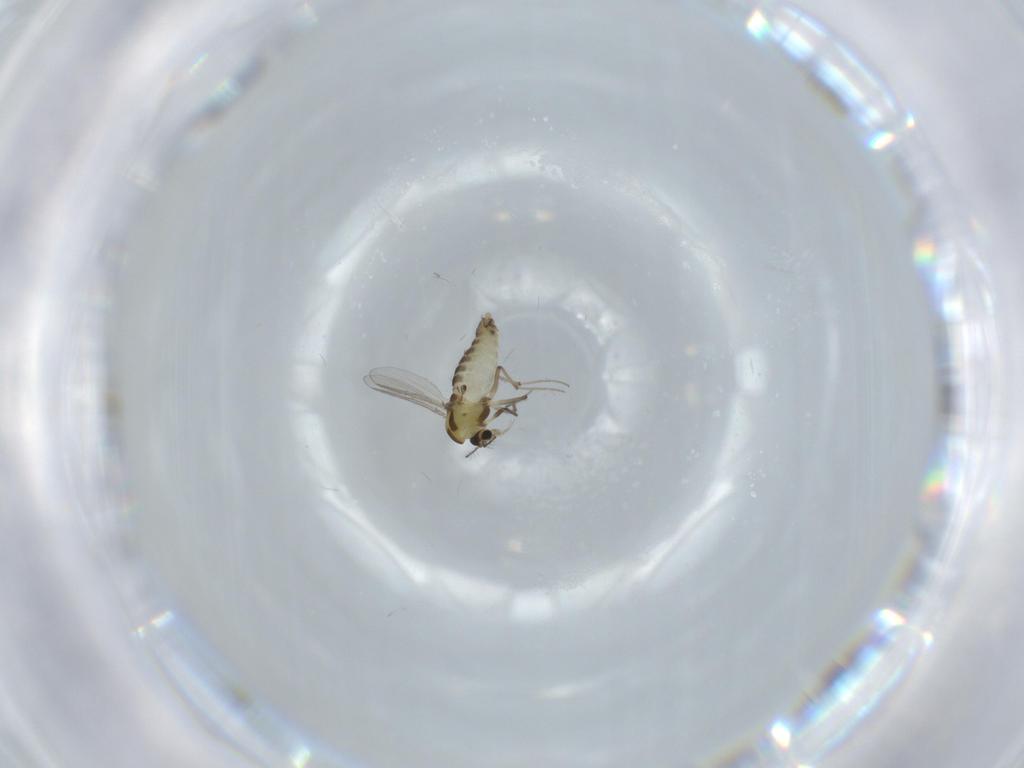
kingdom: Animalia
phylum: Arthropoda
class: Insecta
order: Diptera
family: Chironomidae
